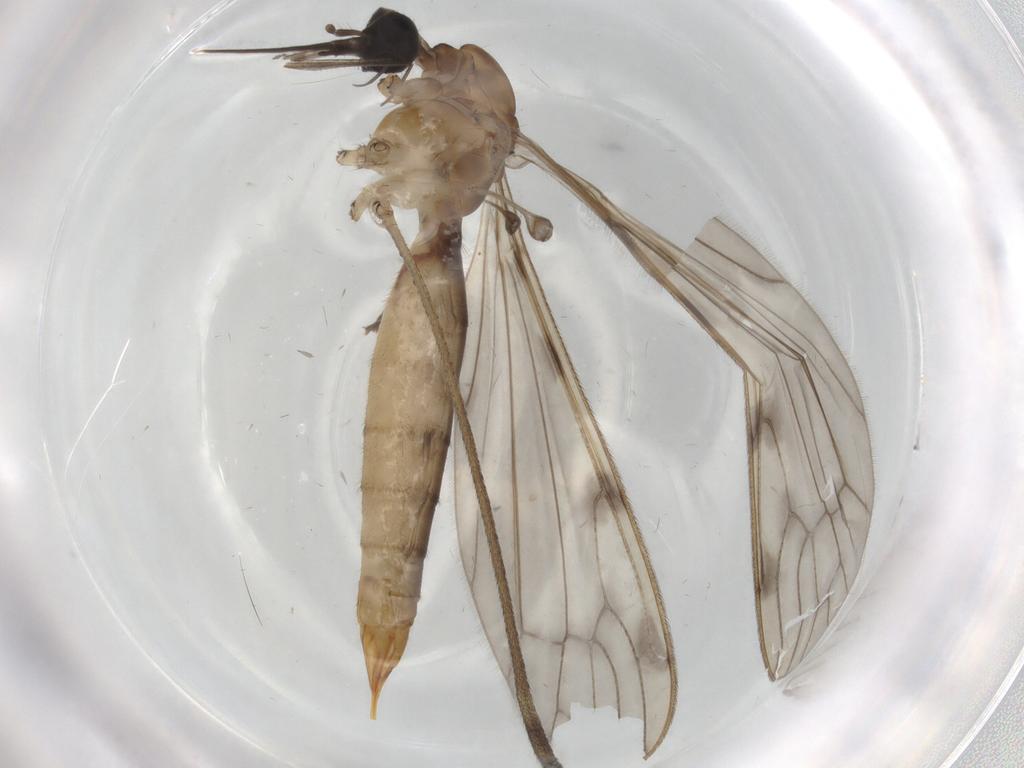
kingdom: Animalia
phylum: Arthropoda
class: Insecta
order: Diptera
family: Sciaridae
